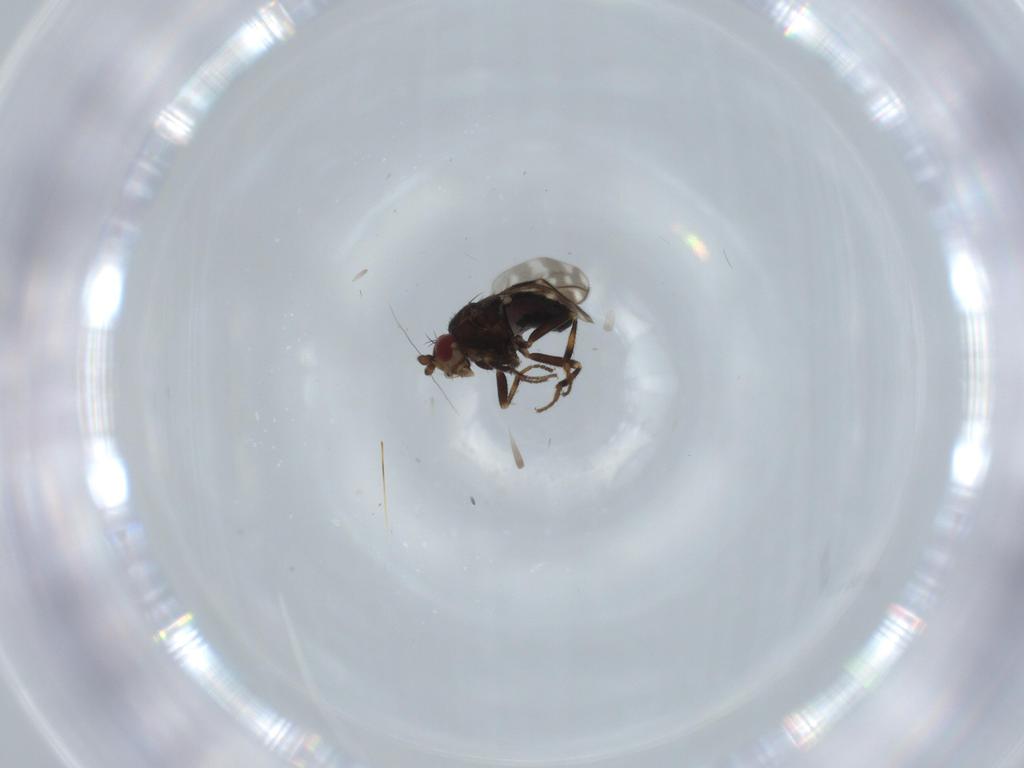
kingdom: Animalia
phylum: Arthropoda
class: Insecta
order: Diptera
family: Sphaeroceridae
